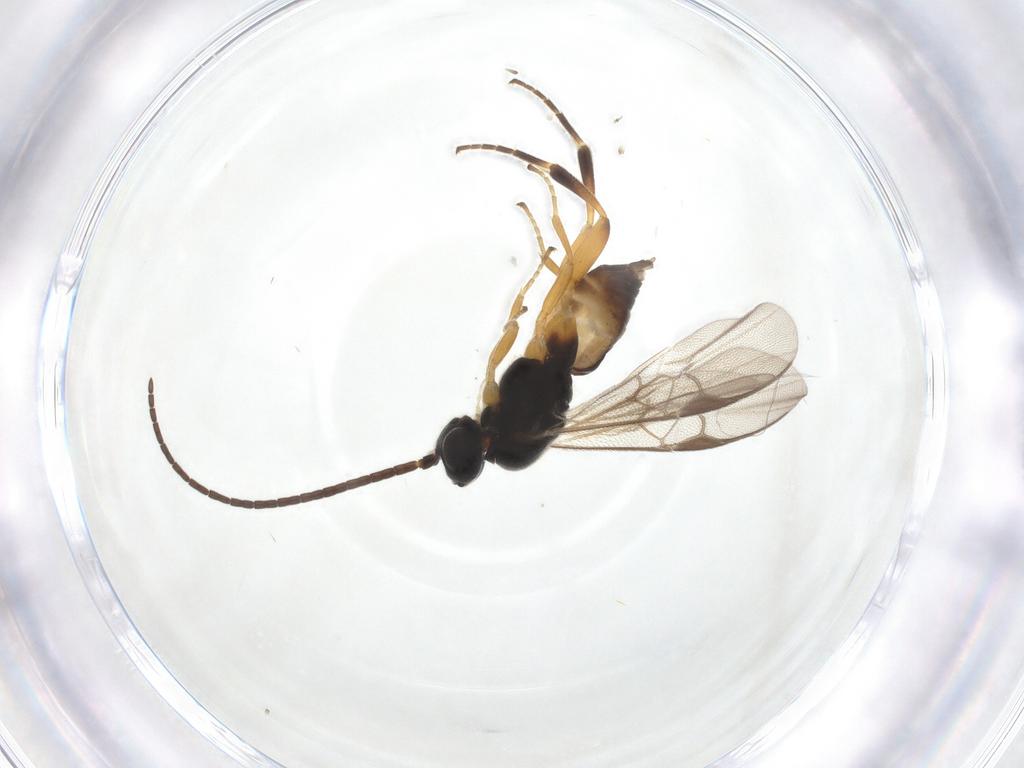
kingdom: Animalia
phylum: Arthropoda
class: Insecta
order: Hymenoptera
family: Braconidae
